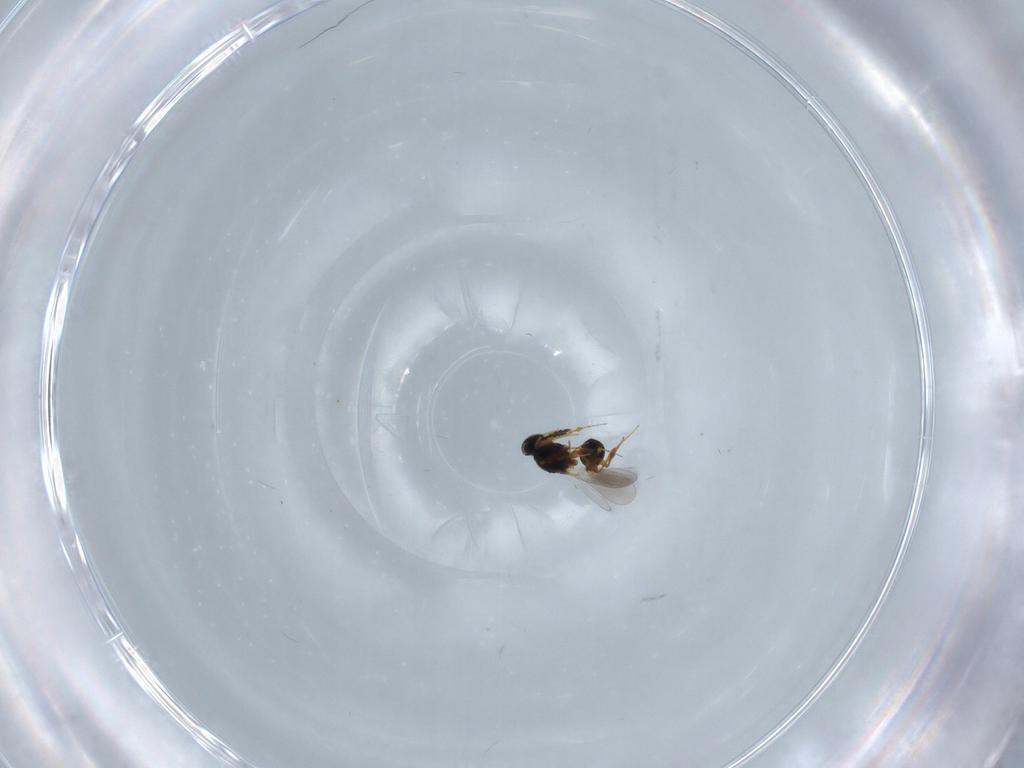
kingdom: Animalia
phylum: Arthropoda
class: Insecta
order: Hymenoptera
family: Platygastridae
